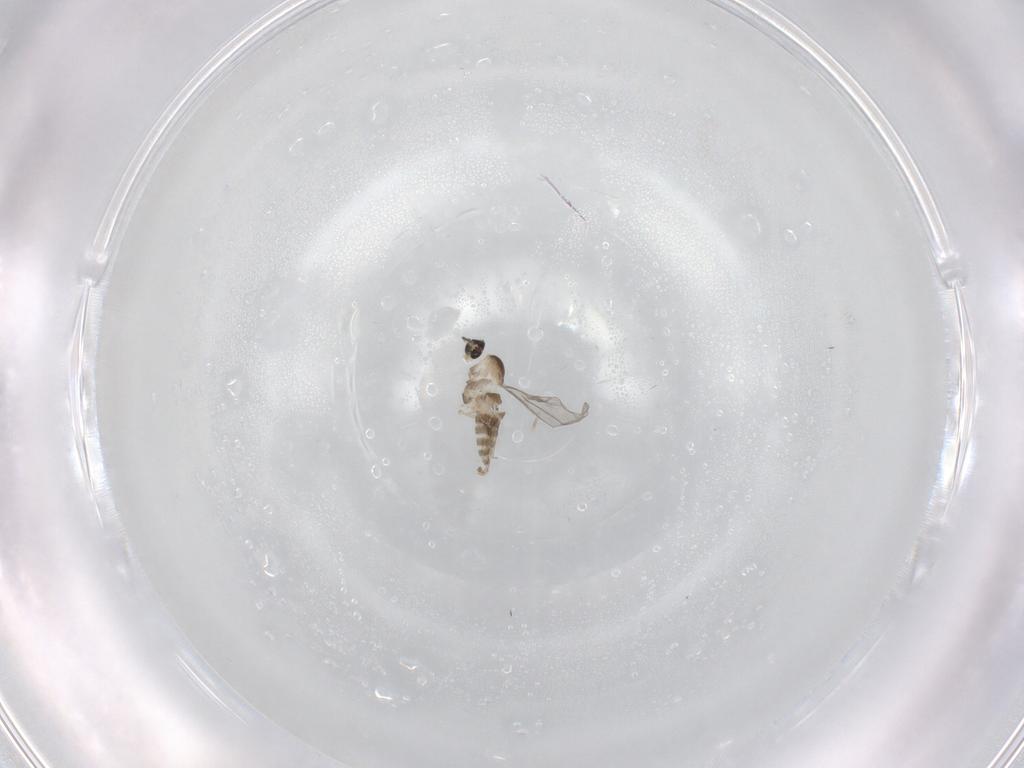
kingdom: Animalia
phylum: Arthropoda
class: Insecta
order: Diptera
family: Cecidomyiidae
